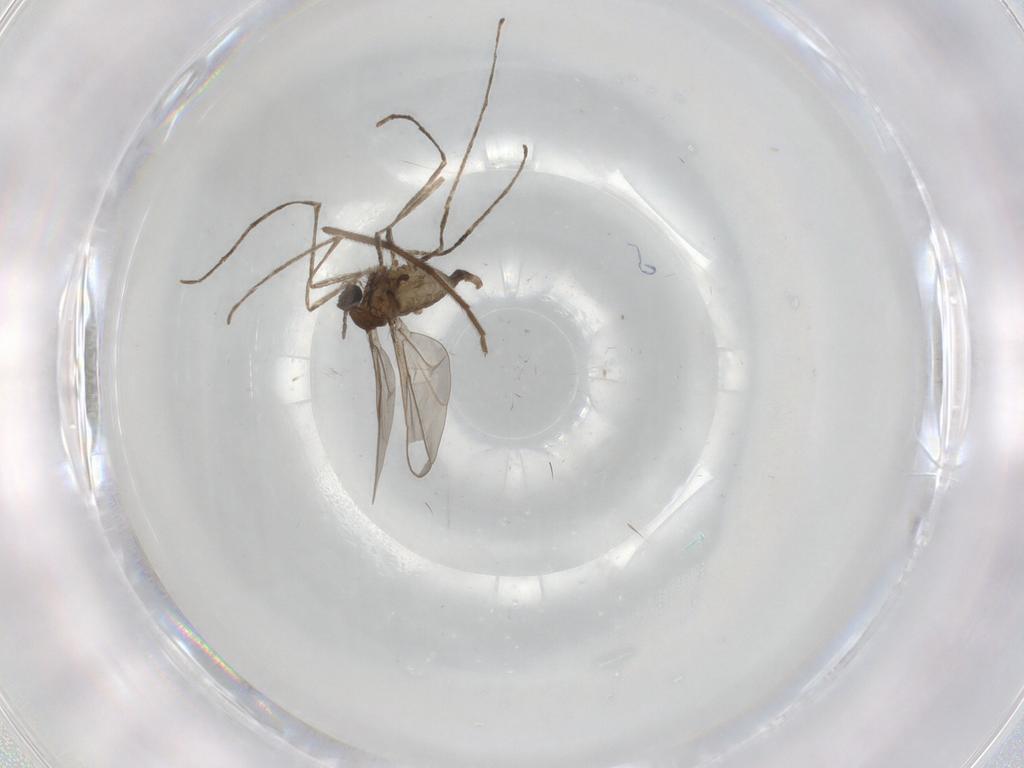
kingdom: Animalia
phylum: Arthropoda
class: Insecta
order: Diptera
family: Cecidomyiidae
